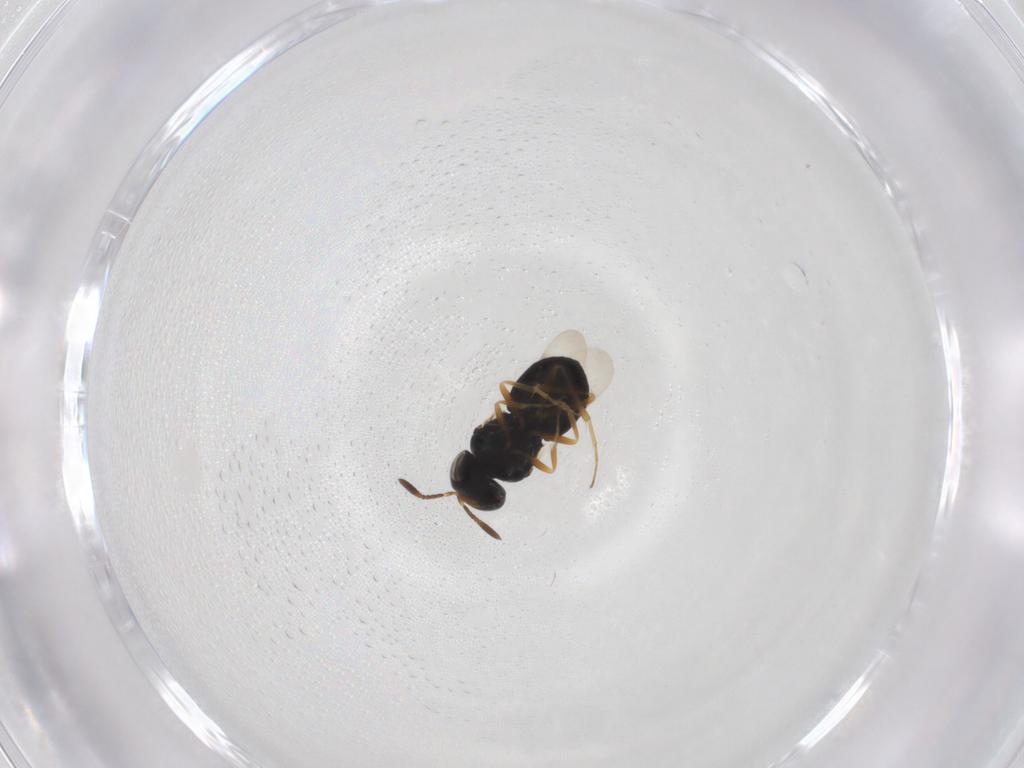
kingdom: Animalia
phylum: Arthropoda
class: Insecta
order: Hymenoptera
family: Scelionidae
